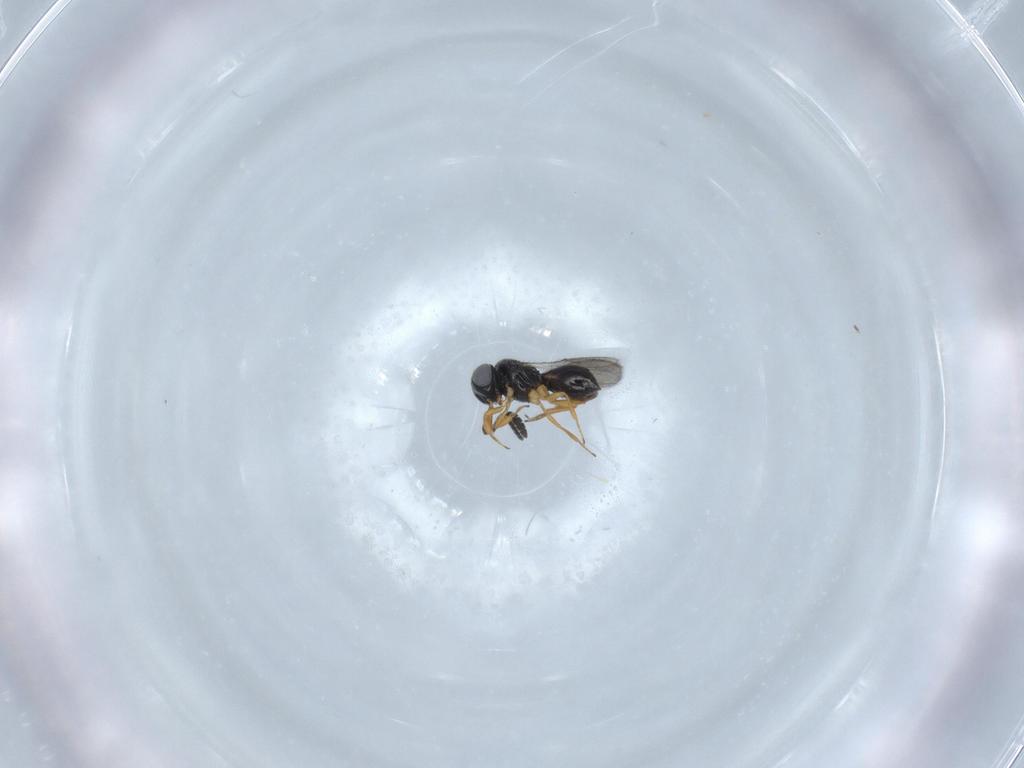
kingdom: Animalia
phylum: Arthropoda
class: Insecta
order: Hymenoptera
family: Scelionidae
